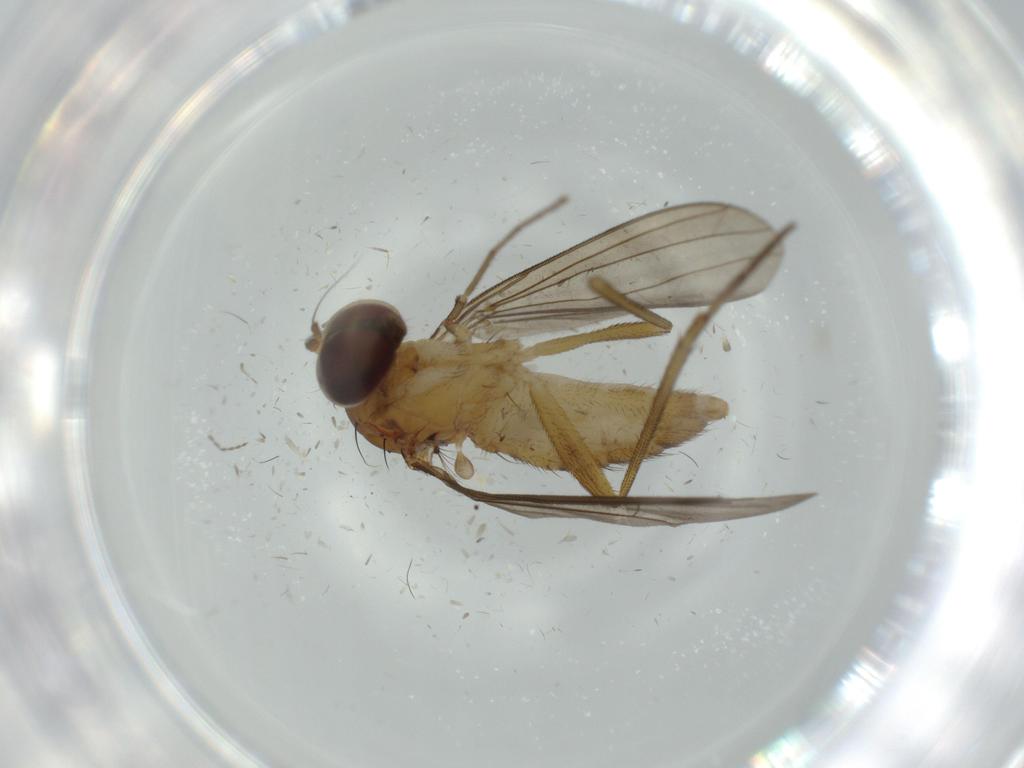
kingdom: Animalia
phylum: Arthropoda
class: Insecta
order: Diptera
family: Dolichopodidae
